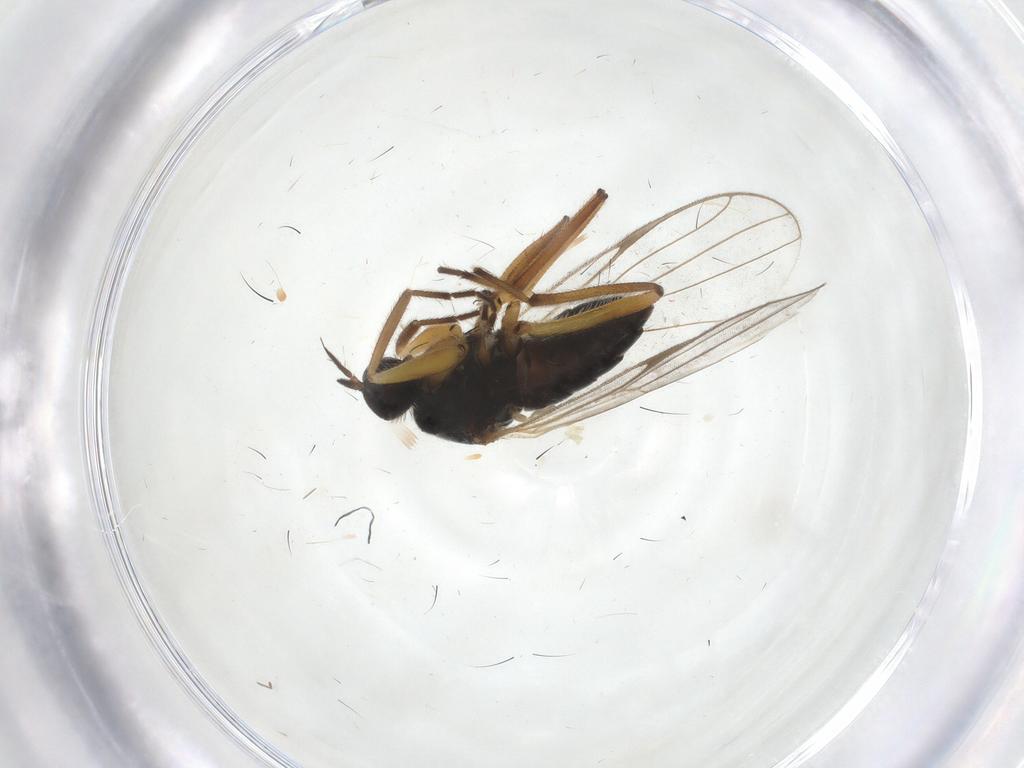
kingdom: Animalia
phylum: Arthropoda
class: Insecta
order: Diptera
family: Hybotidae
